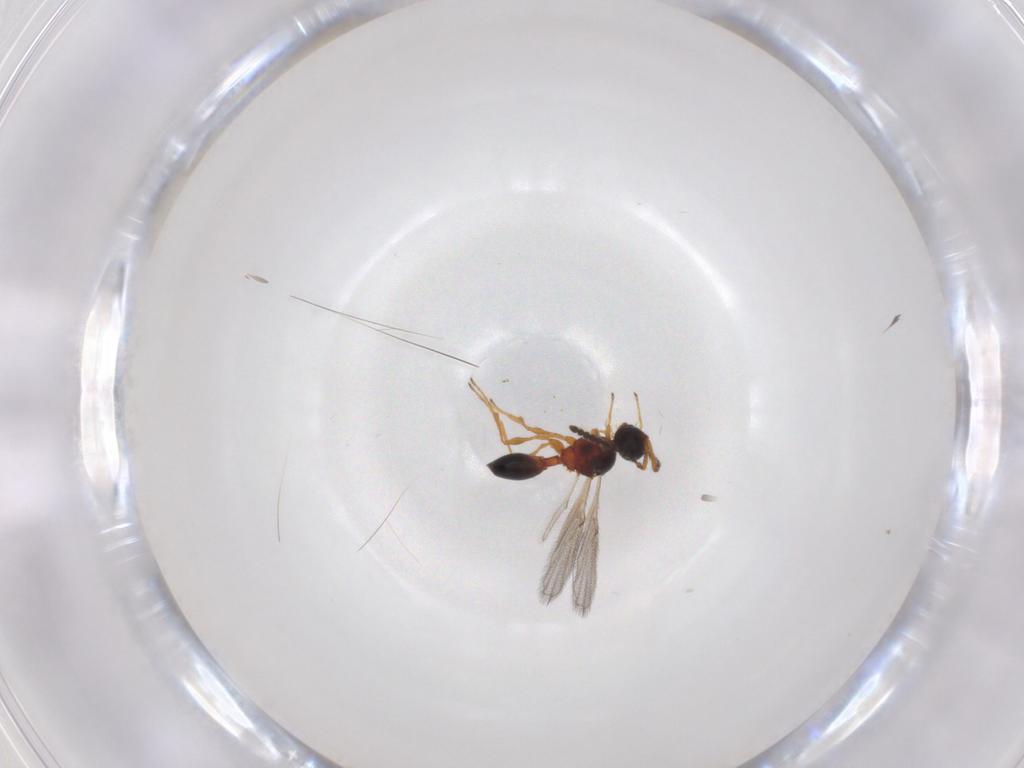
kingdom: Animalia
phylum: Arthropoda
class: Insecta
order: Hymenoptera
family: Diapriidae
